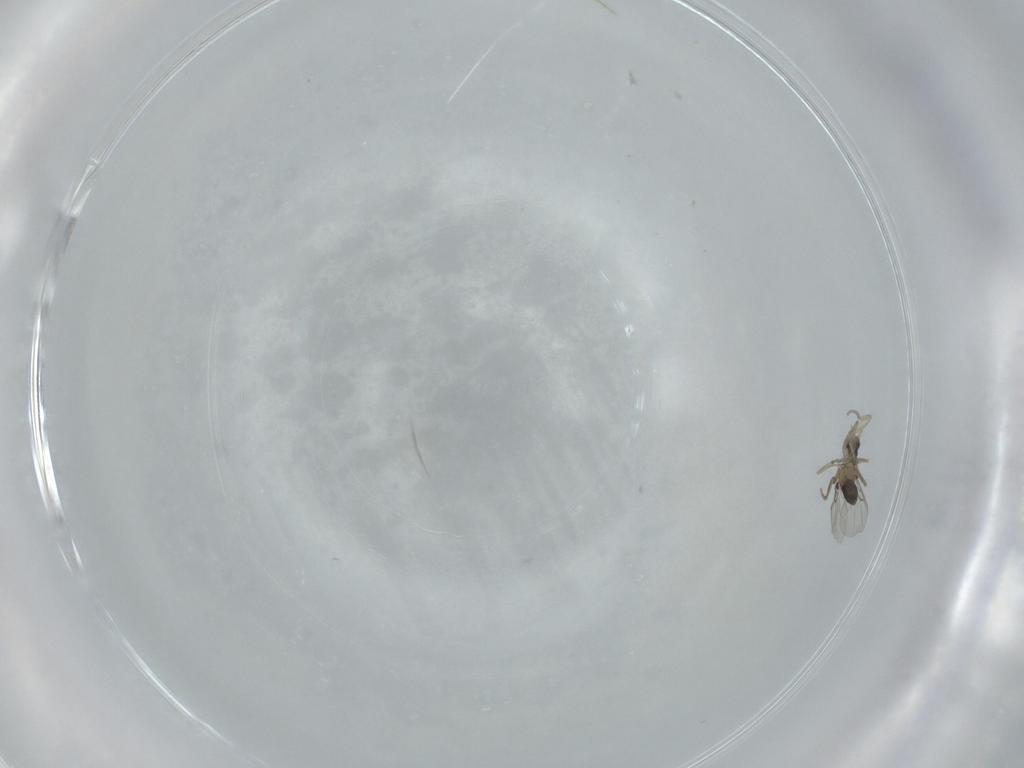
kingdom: Animalia
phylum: Arthropoda
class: Insecta
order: Diptera
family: Phoridae
